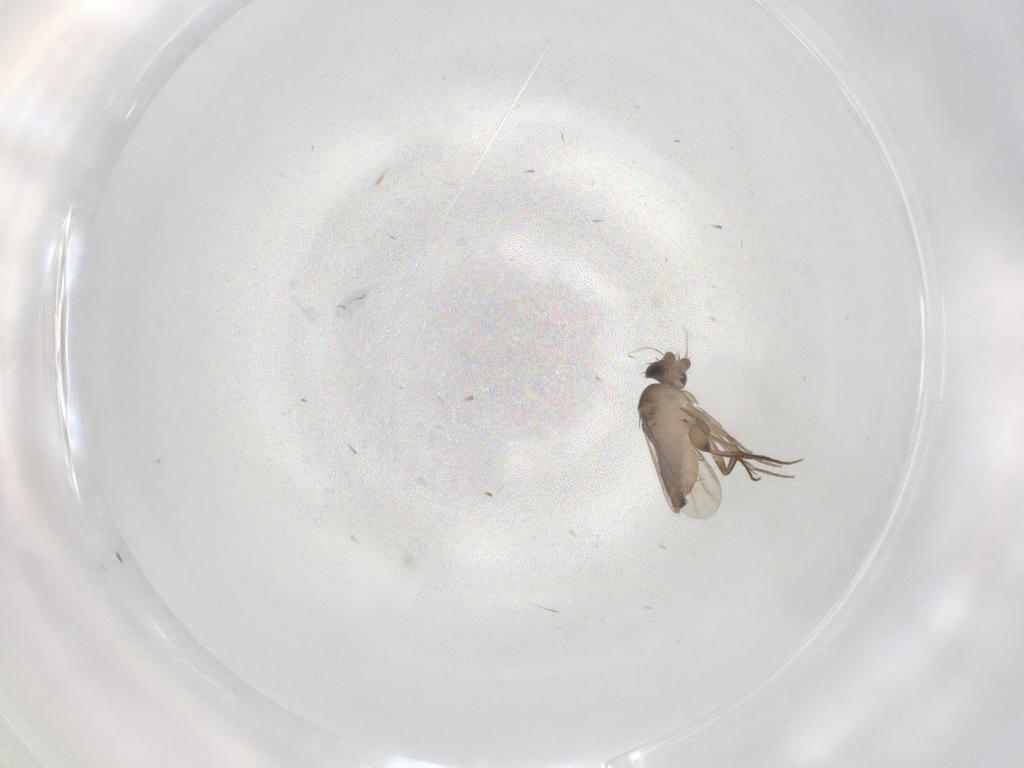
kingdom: Animalia
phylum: Arthropoda
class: Insecta
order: Diptera
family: Phoridae
